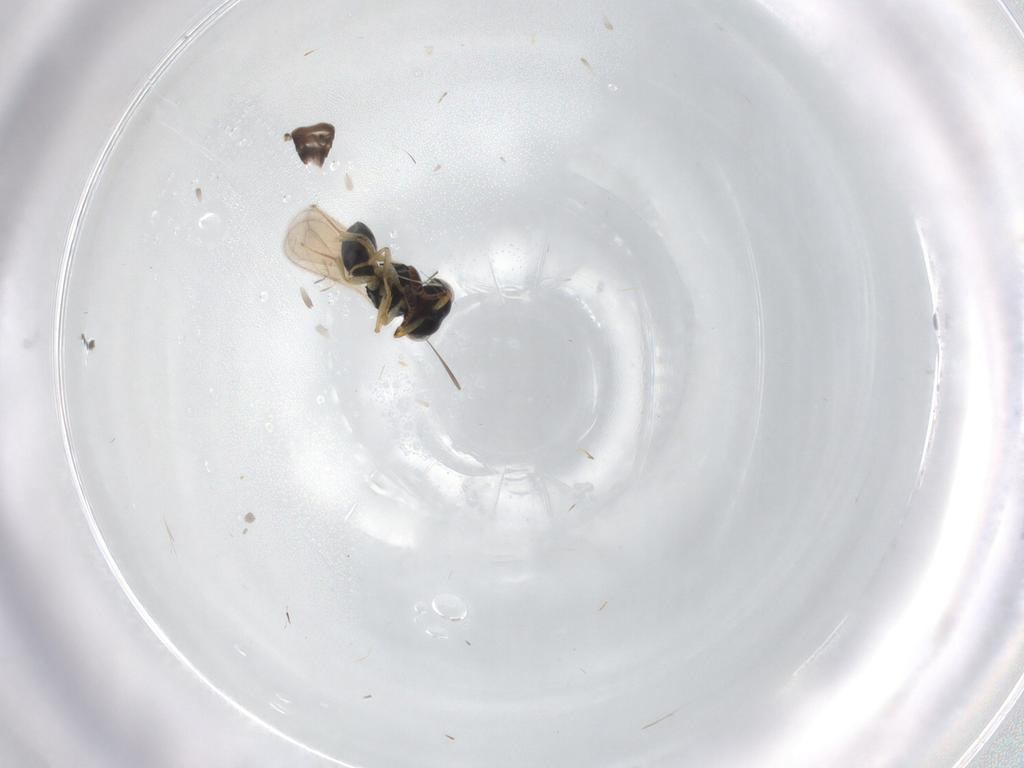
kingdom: Animalia
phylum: Arthropoda
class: Insecta
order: Hymenoptera
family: Scelionidae
